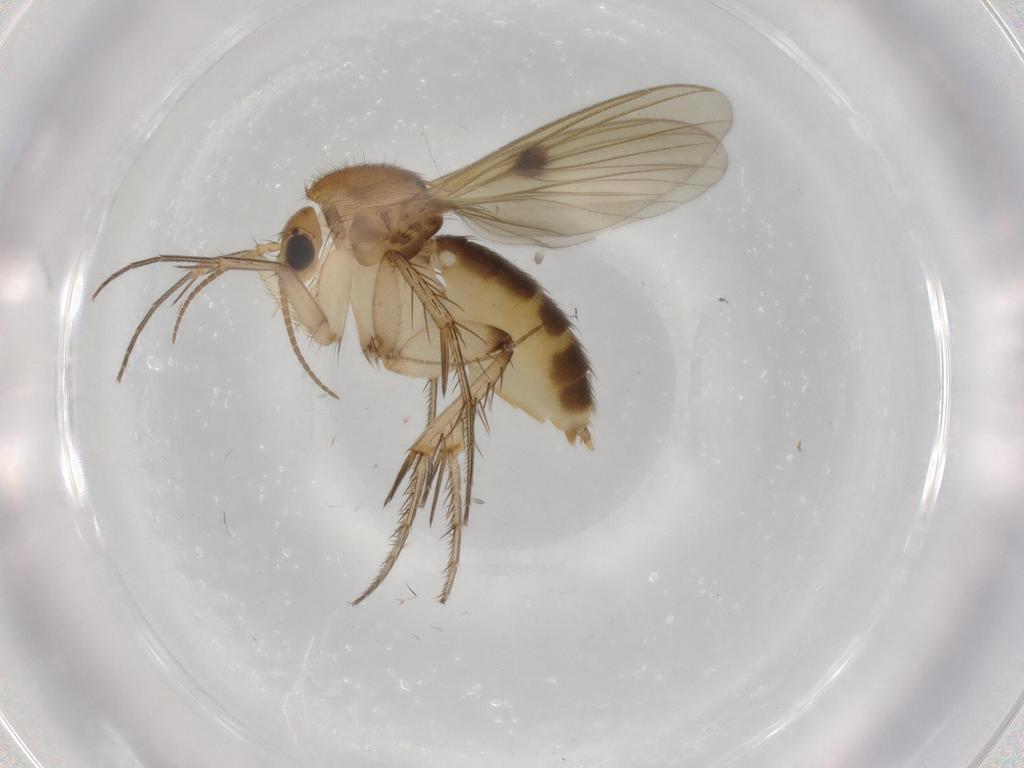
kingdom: Animalia
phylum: Arthropoda
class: Insecta
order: Diptera
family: Mycetophilidae
